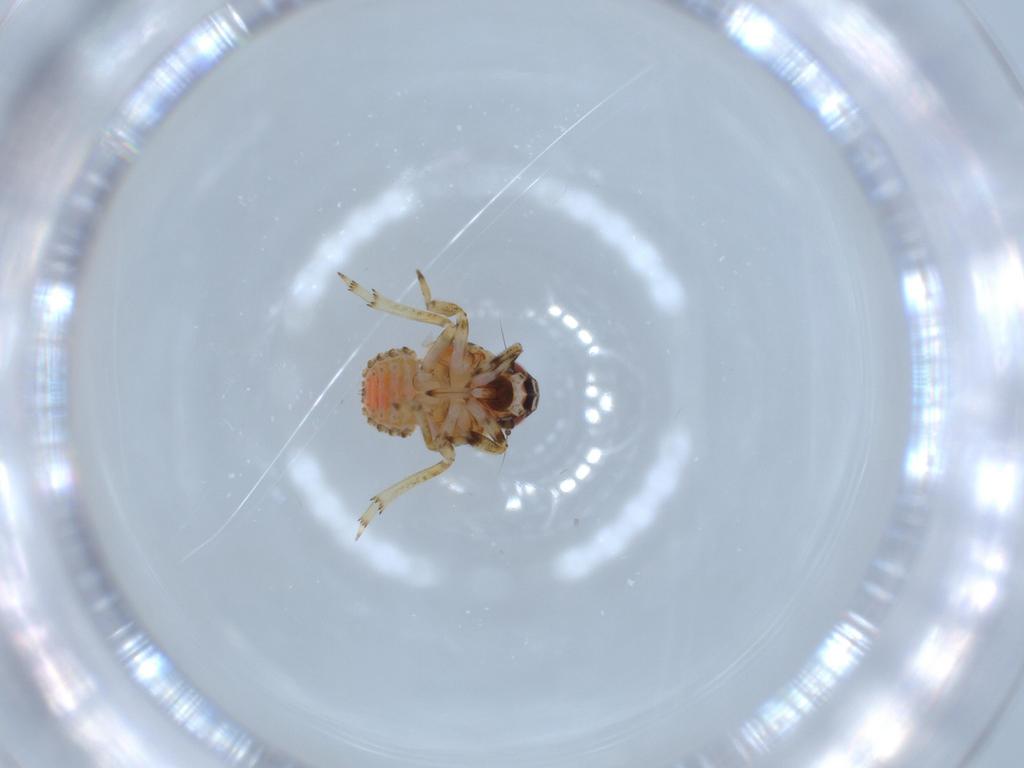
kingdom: Animalia
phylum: Arthropoda
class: Insecta
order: Hemiptera
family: Issidae
